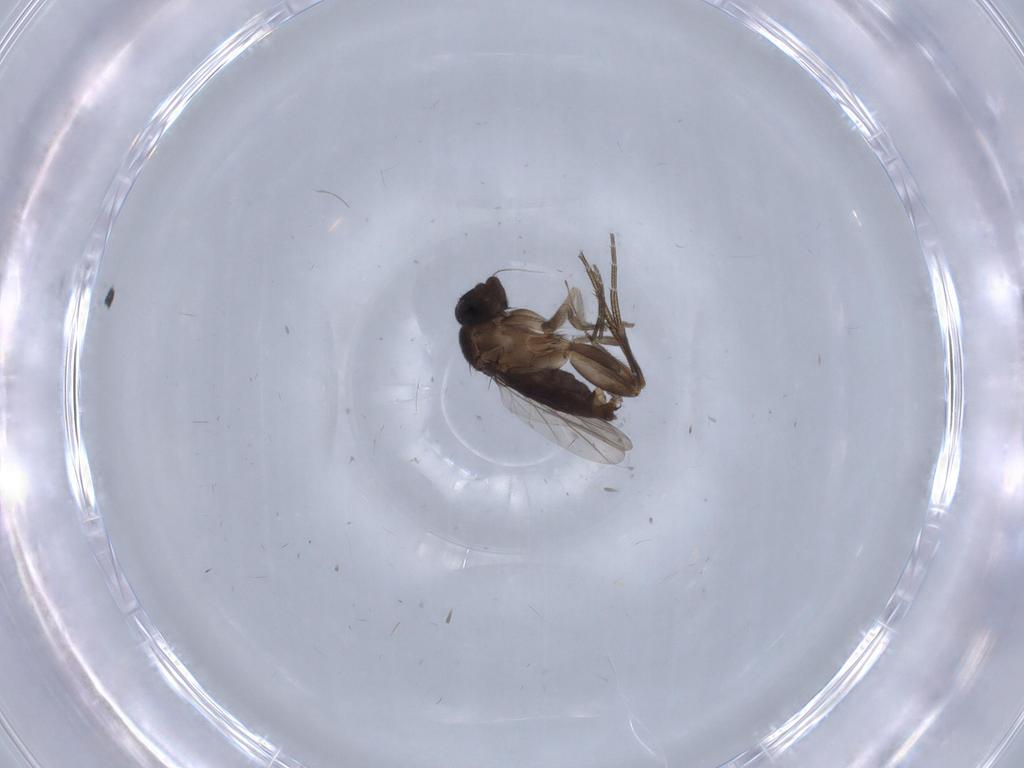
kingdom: Animalia
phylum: Arthropoda
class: Insecta
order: Diptera
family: Phoridae
